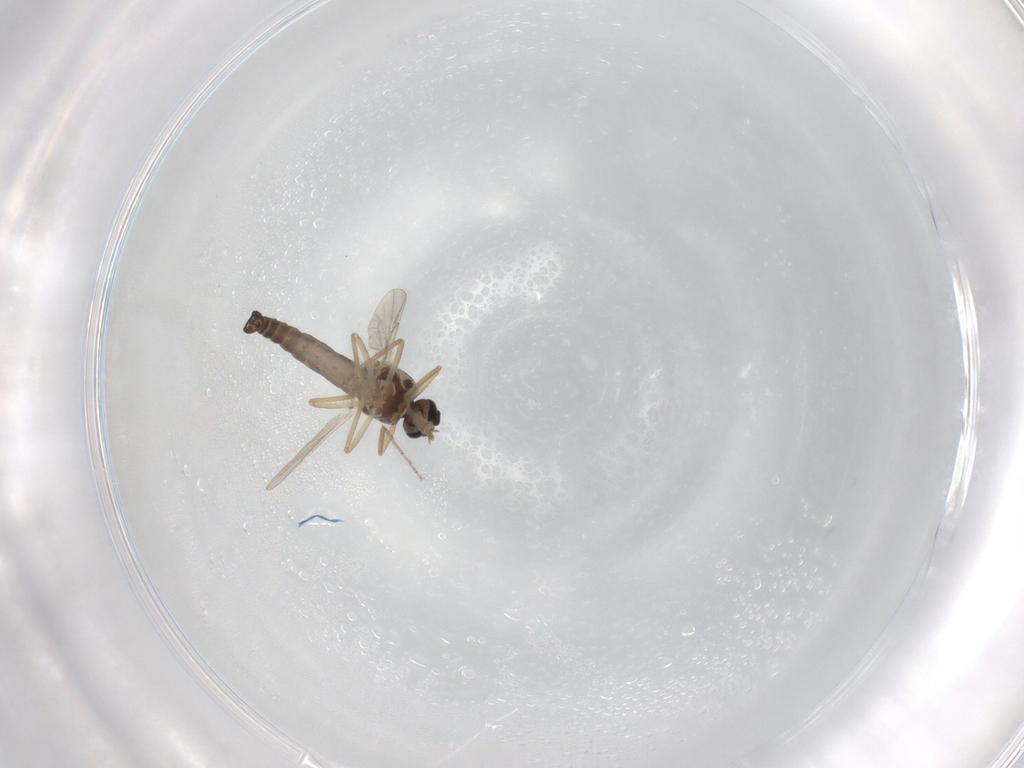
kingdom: Animalia
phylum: Arthropoda
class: Insecta
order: Diptera
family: Ceratopogonidae
